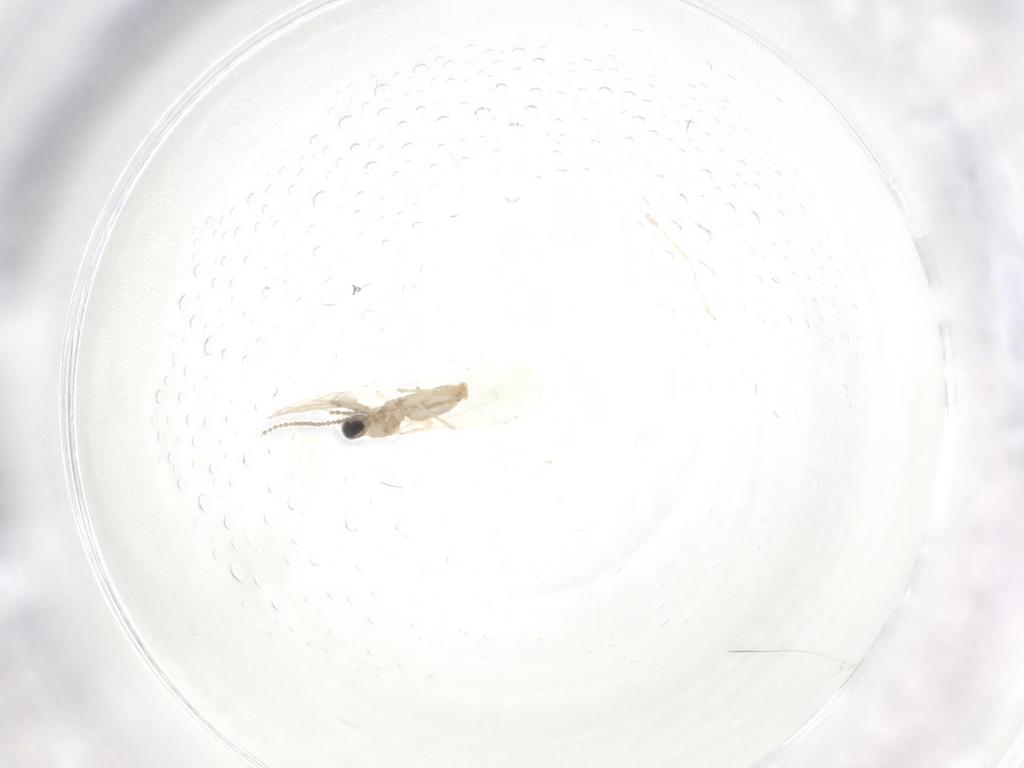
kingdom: Animalia
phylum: Arthropoda
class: Insecta
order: Diptera
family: Cecidomyiidae
